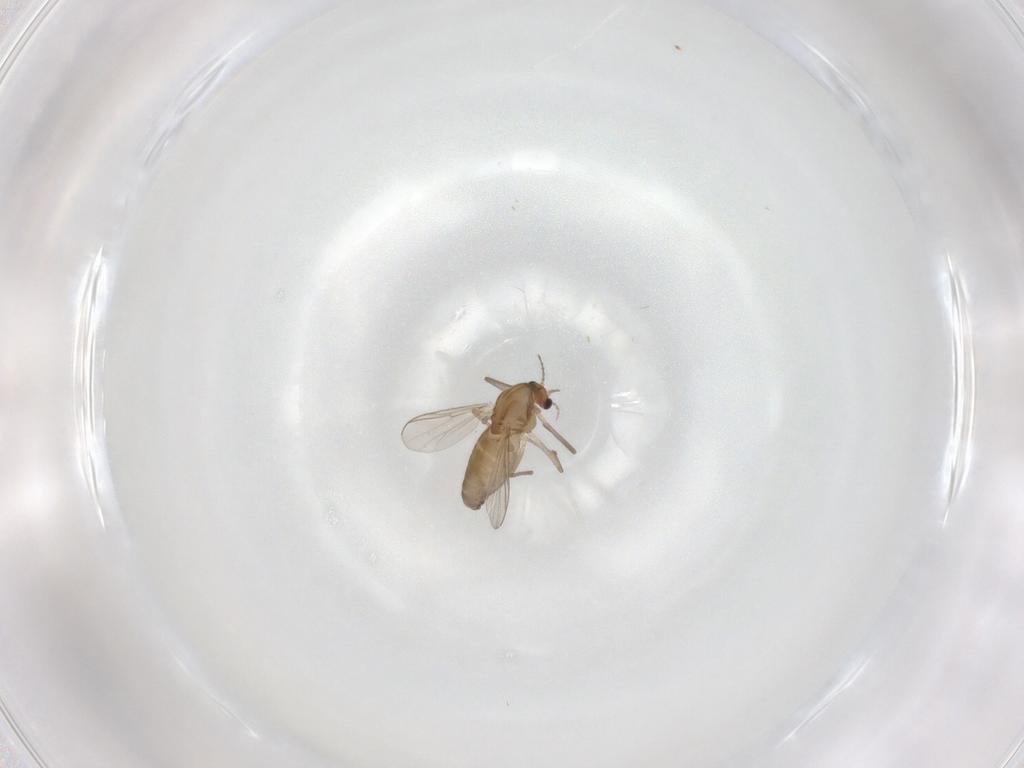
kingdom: Animalia
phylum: Arthropoda
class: Insecta
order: Diptera
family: Chironomidae
